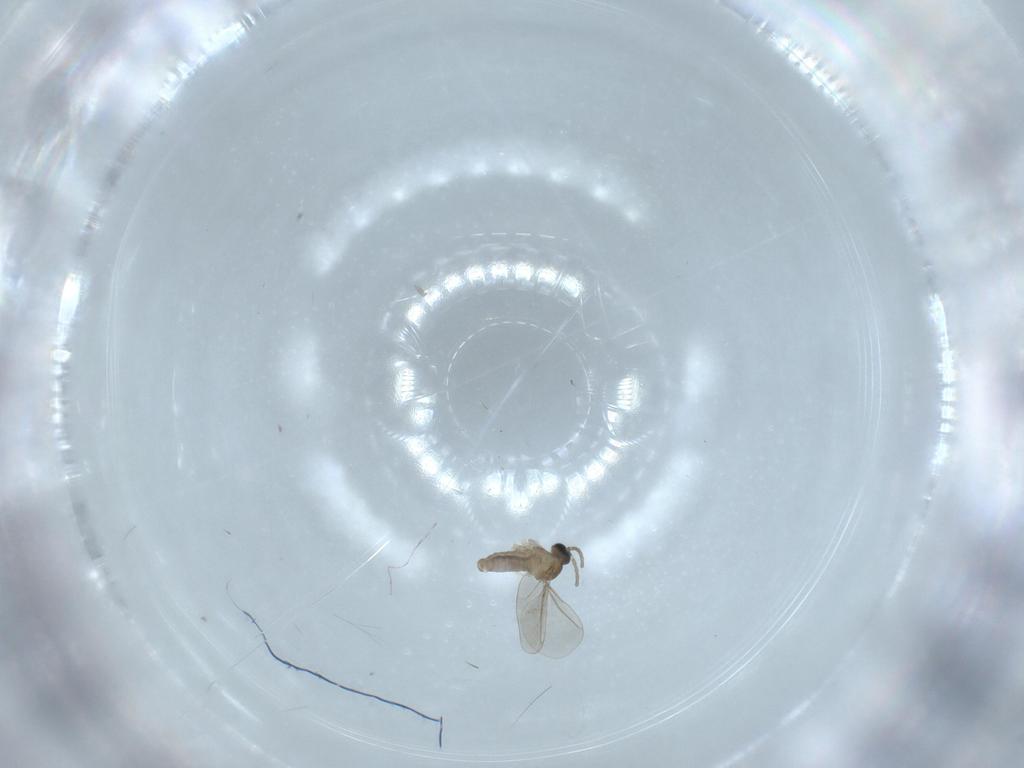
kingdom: Animalia
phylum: Arthropoda
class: Insecta
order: Diptera
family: Cecidomyiidae
